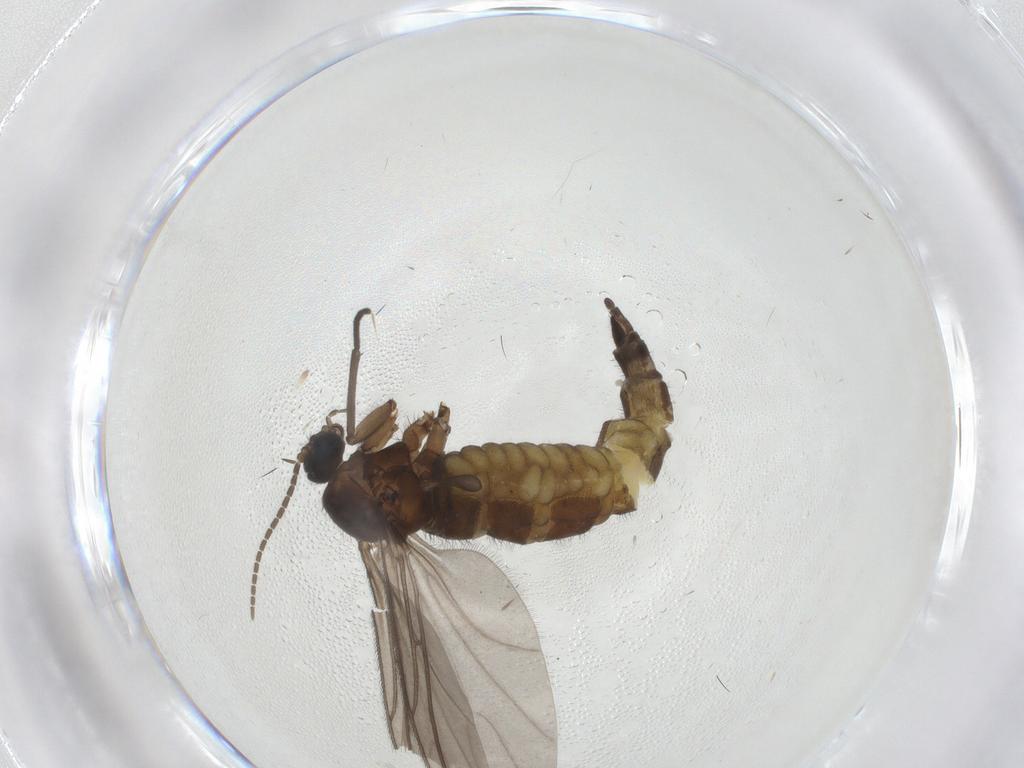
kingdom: Animalia
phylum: Arthropoda
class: Insecta
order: Diptera
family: Sciaridae
